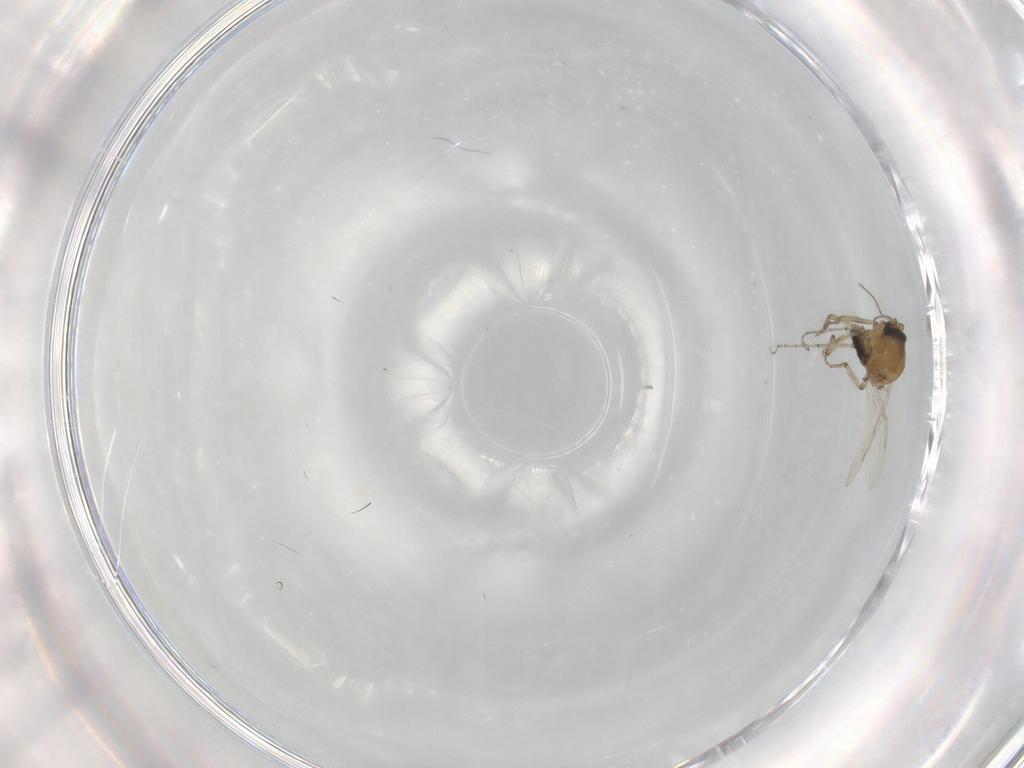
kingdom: Animalia
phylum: Arthropoda
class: Insecta
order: Diptera
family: Ceratopogonidae
